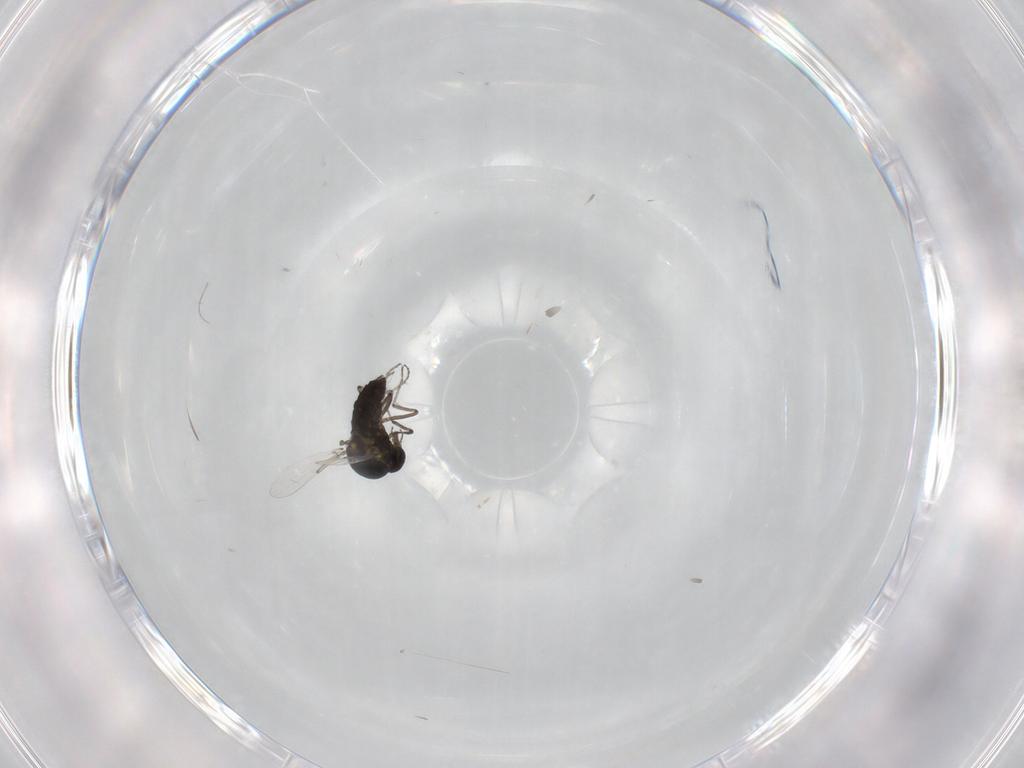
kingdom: Animalia
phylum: Arthropoda
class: Insecta
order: Diptera
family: Ceratopogonidae
